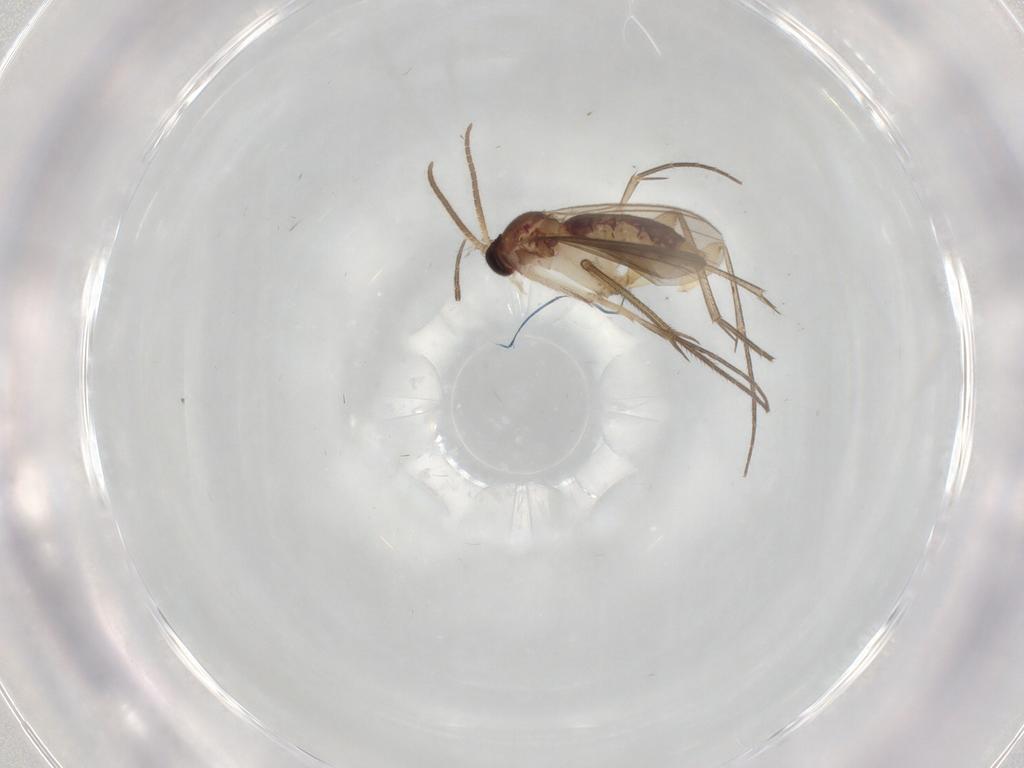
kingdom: Animalia
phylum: Arthropoda
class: Insecta
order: Diptera
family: Mycetophilidae
